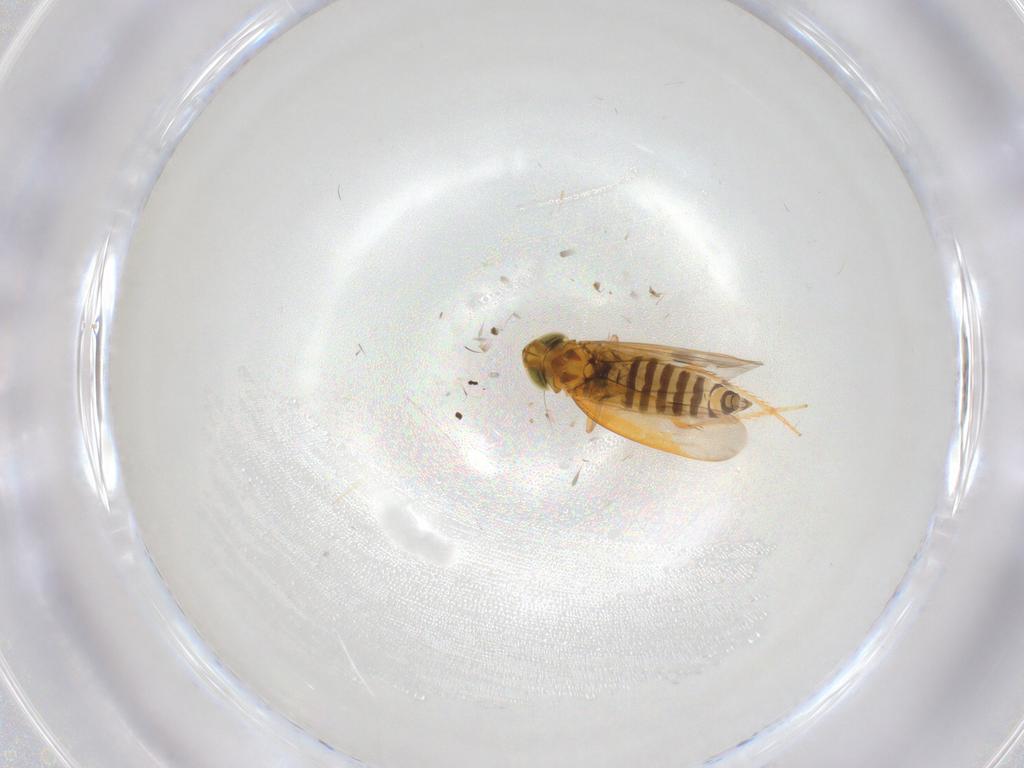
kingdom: Animalia
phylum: Arthropoda
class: Insecta
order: Hemiptera
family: Cicadellidae
